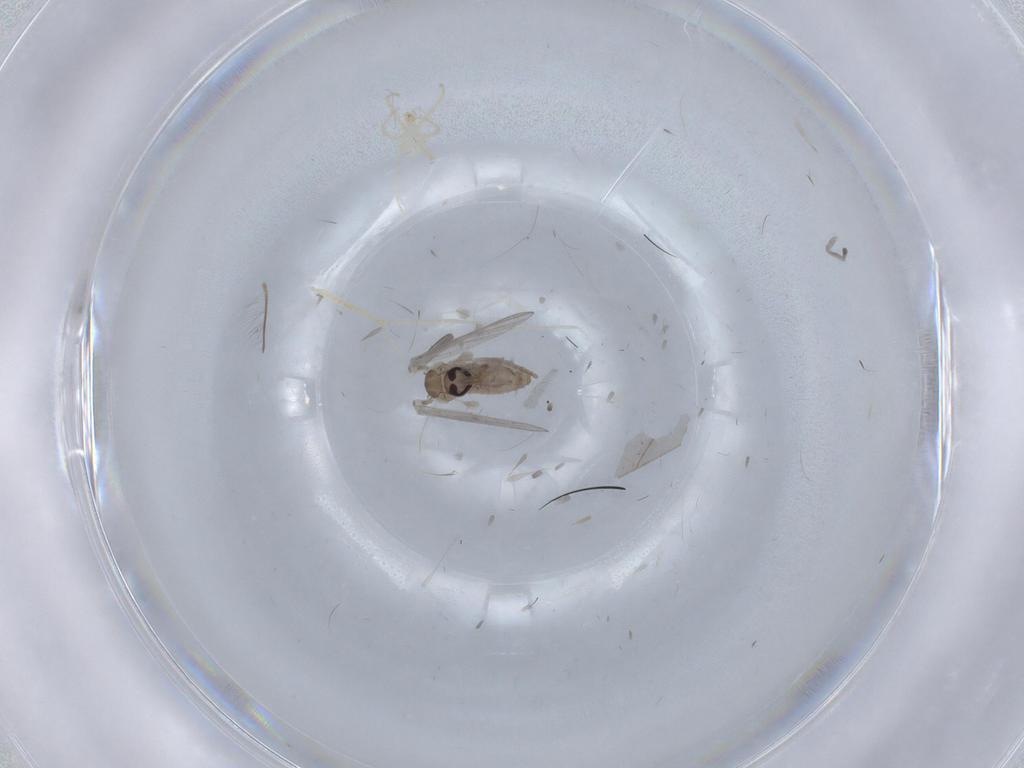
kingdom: Animalia
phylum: Arthropoda
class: Insecta
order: Diptera
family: Psychodidae
